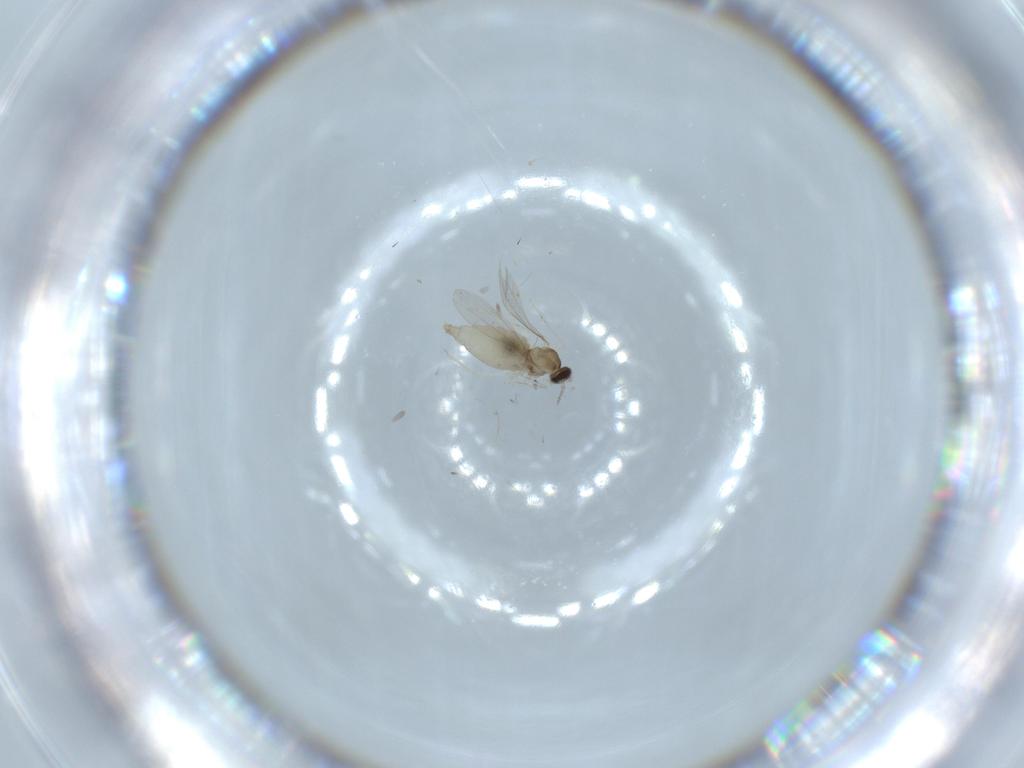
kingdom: Animalia
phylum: Arthropoda
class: Insecta
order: Diptera
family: Cecidomyiidae
